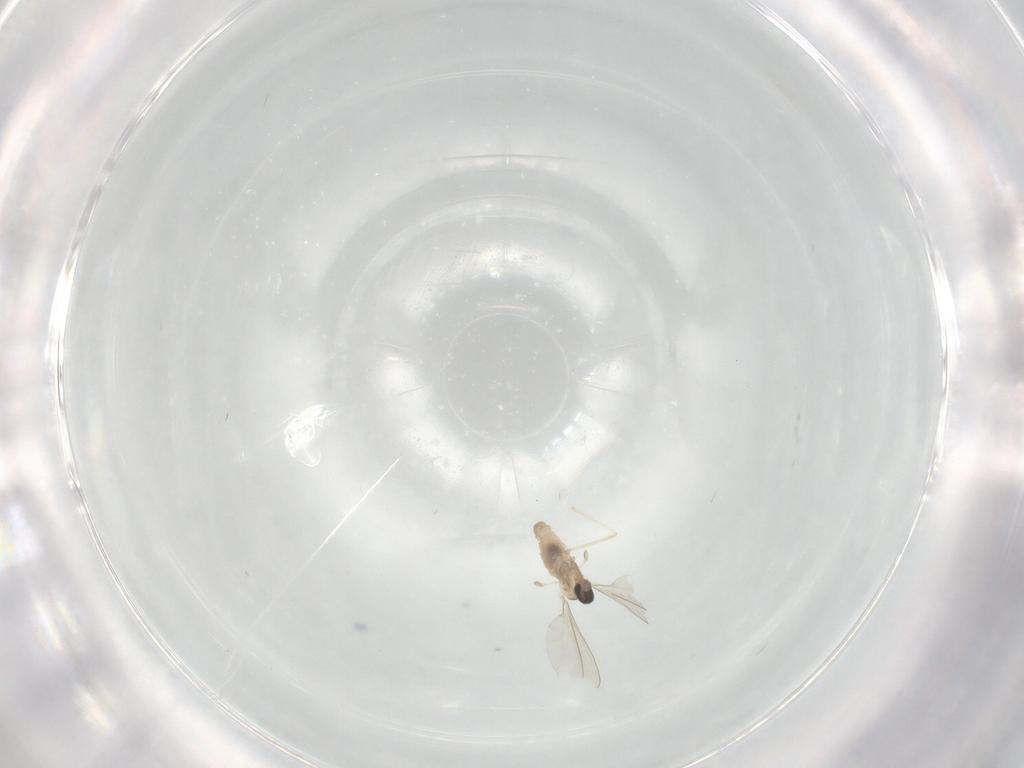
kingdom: Animalia
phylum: Arthropoda
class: Insecta
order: Diptera
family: Cecidomyiidae
